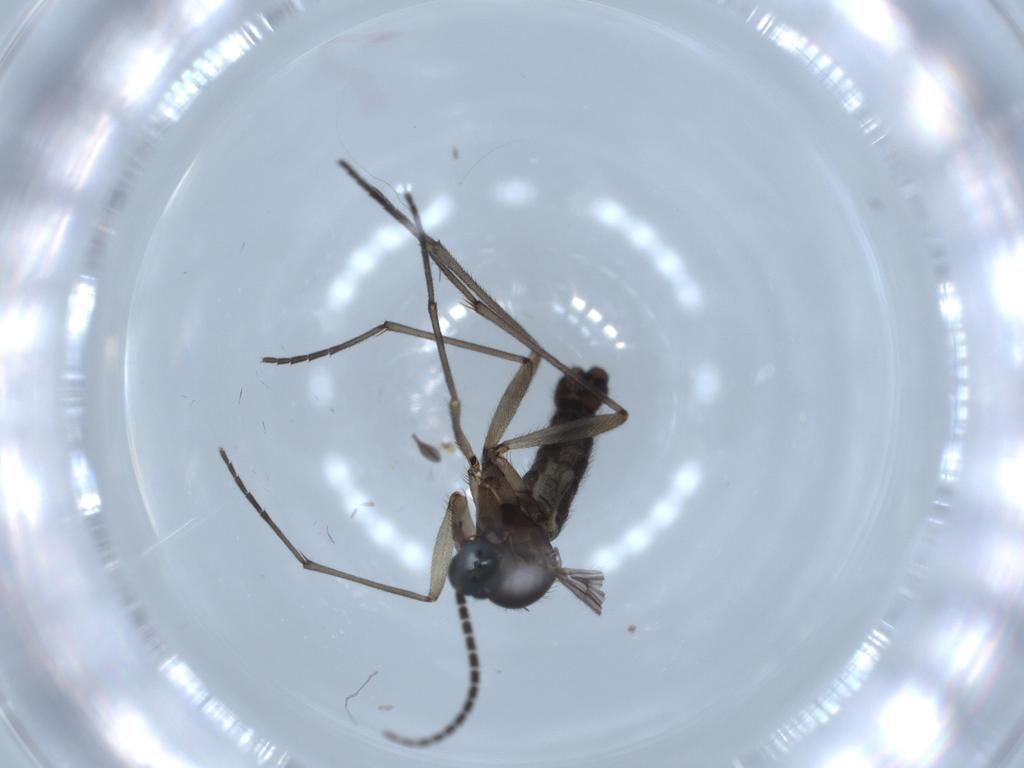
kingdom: Animalia
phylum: Arthropoda
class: Insecta
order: Diptera
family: Sciaridae
